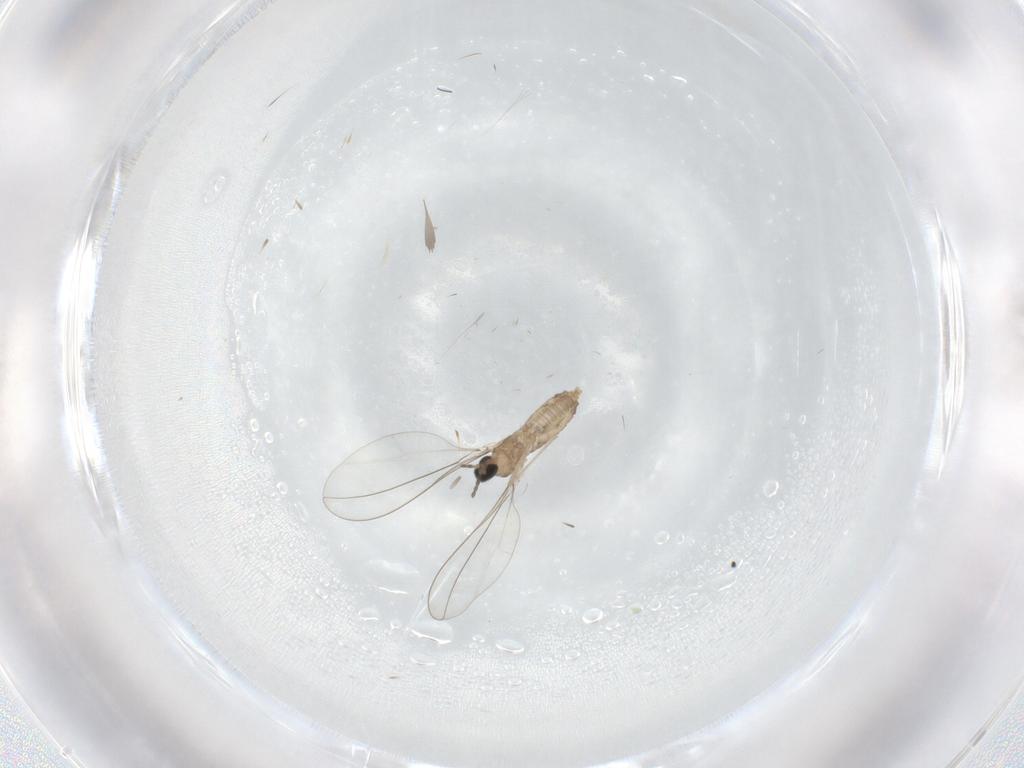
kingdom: Animalia
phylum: Arthropoda
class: Insecta
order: Diptera
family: Cecidomyiidae
